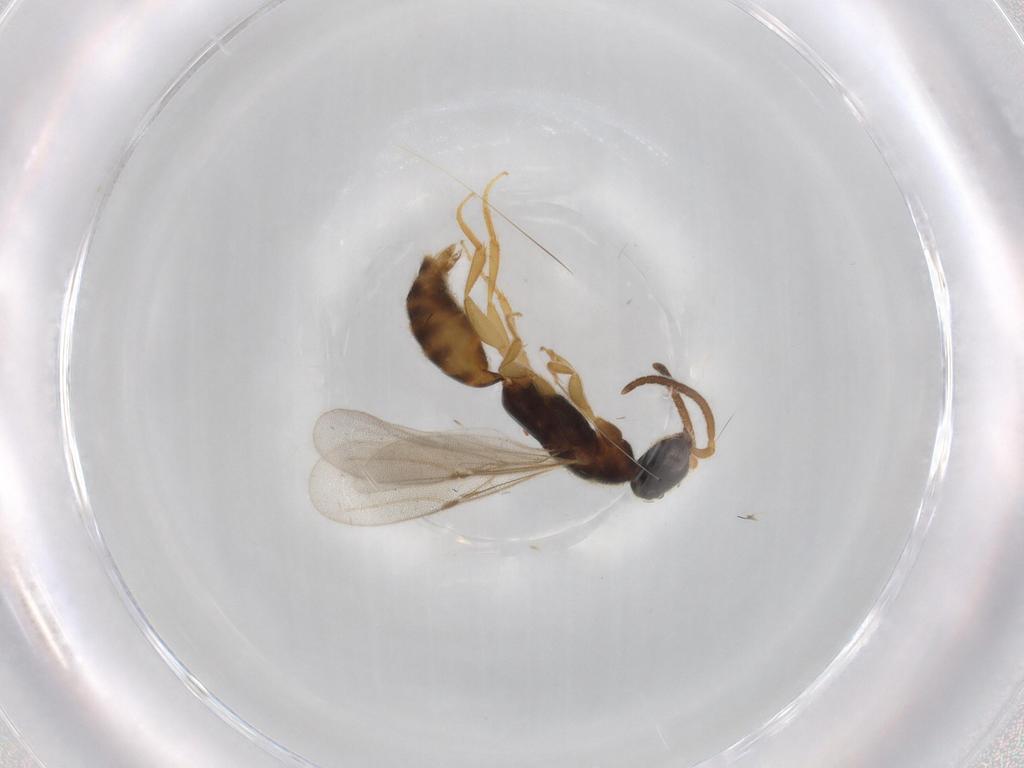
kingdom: Animalia
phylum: Arthropoda
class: Insecta
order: Hymenoptera
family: Bethylidae
